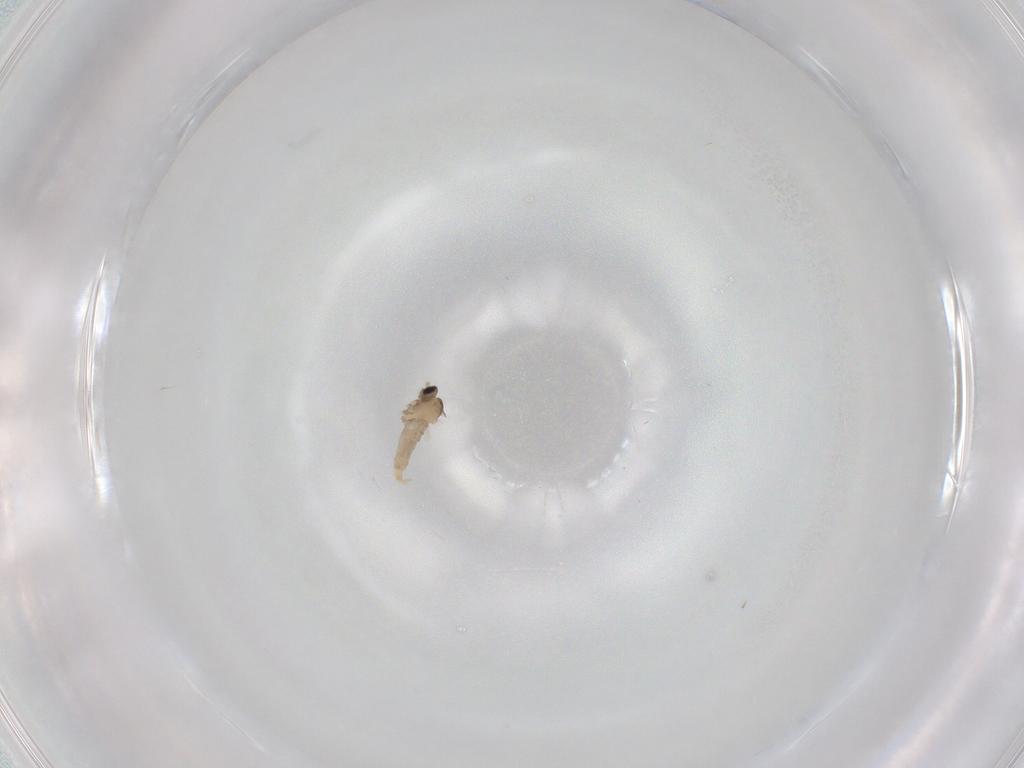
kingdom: Animalia
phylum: Arthropoda
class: Insecta
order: Diptera
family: Cecidomyiidae
